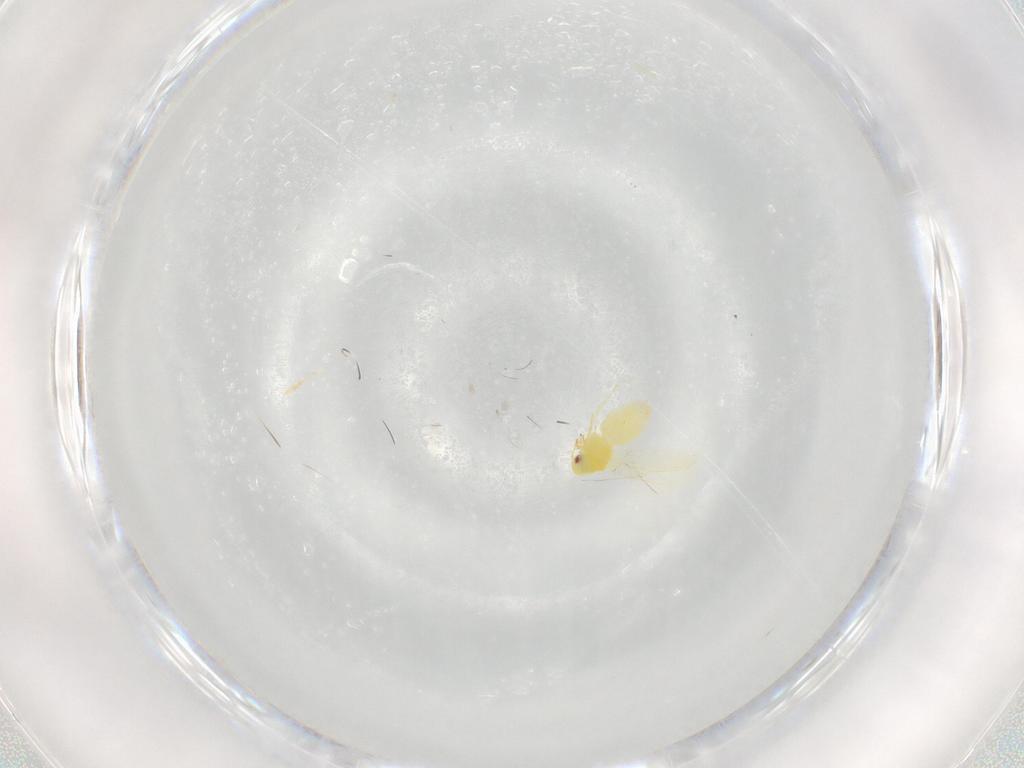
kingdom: Animalia
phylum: Arthropoda
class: Insecta
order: Hemiptera
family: Aleyrodidae
